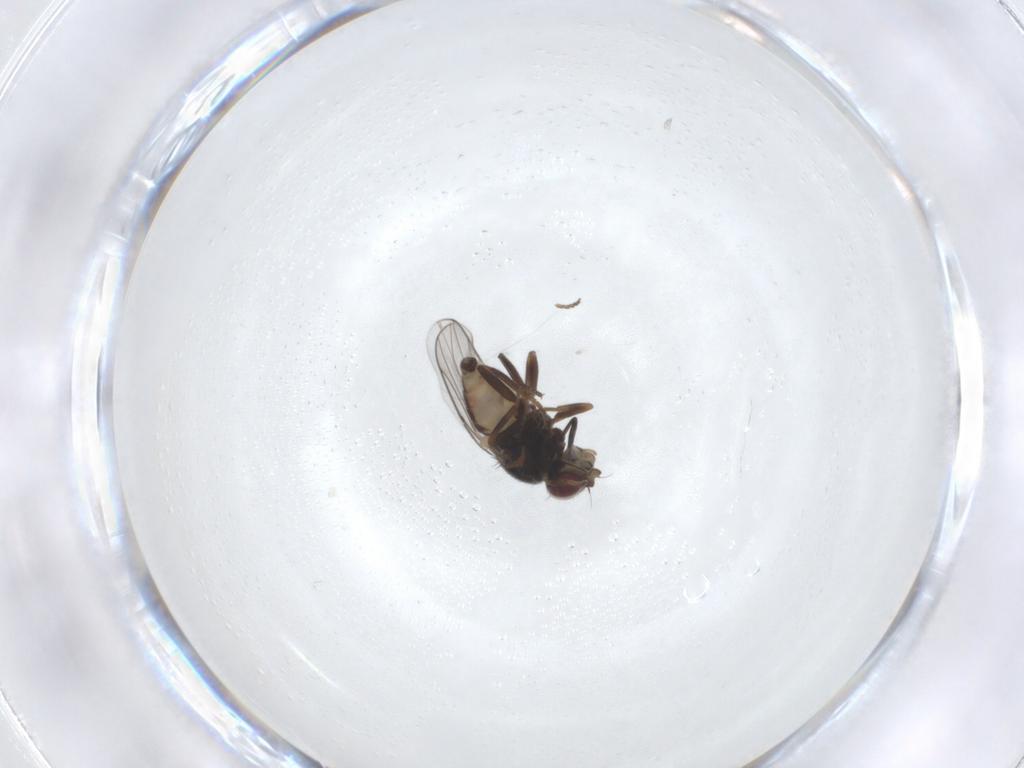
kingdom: Animalia
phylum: Arthropoda
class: Insecta
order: Diptera
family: Chloropidae
